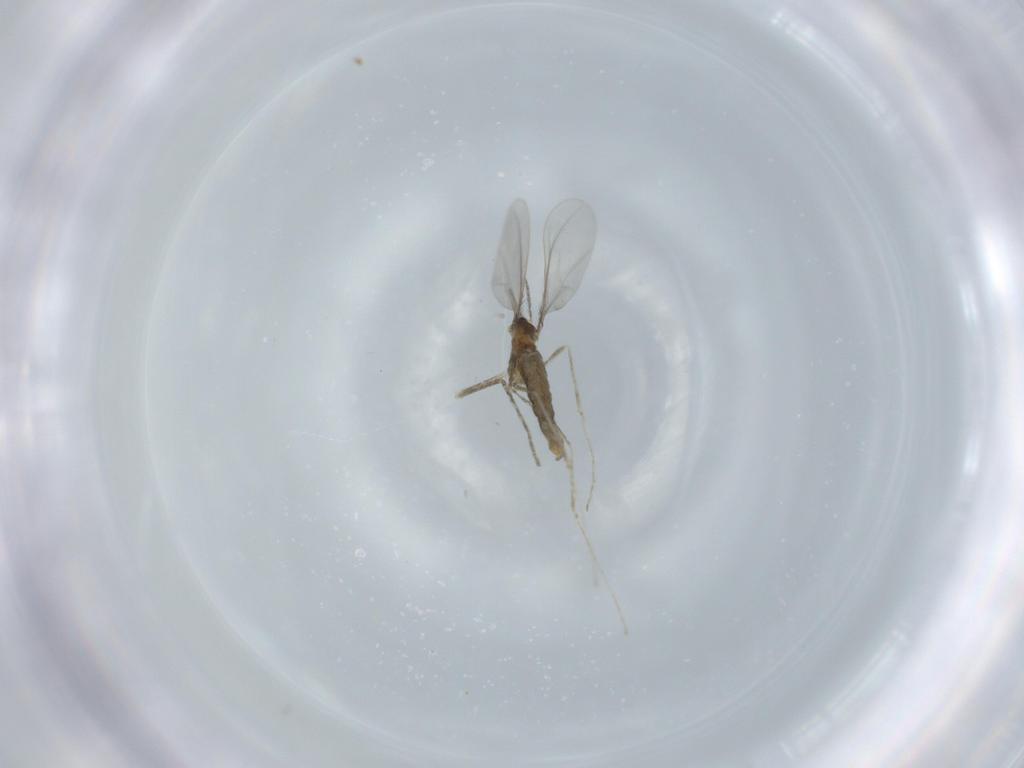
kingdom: Animalia
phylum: Arthropoda
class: Insecta
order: Diptera
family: Cecidomyiidae
